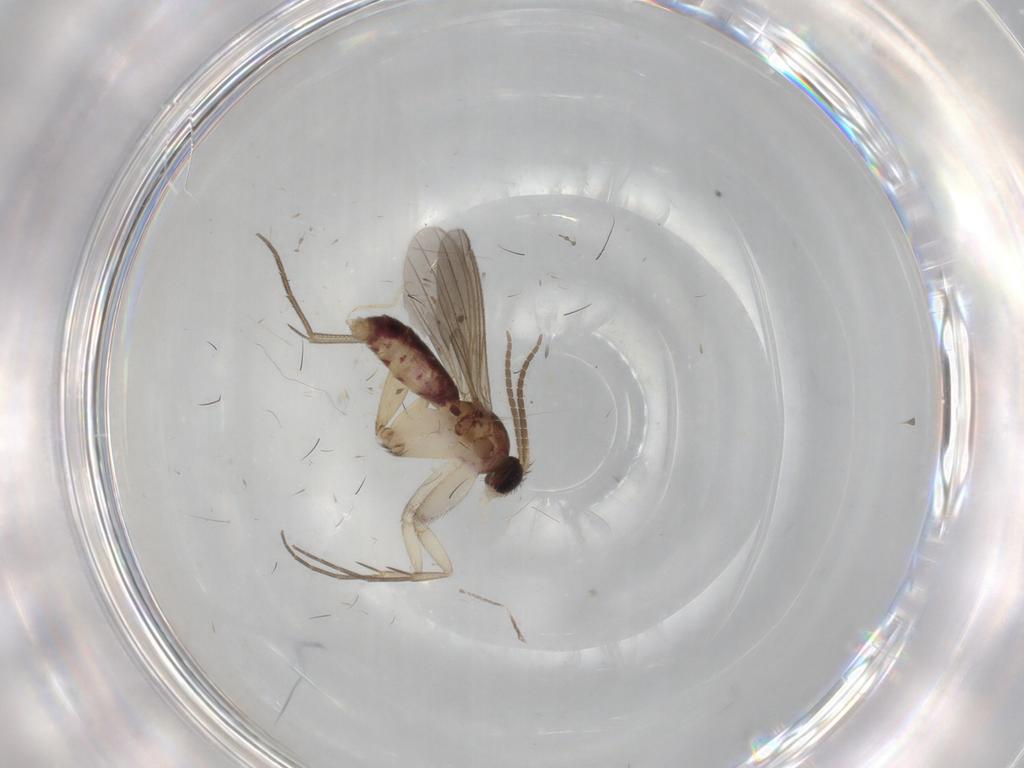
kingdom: Animalia
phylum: Arthropoda
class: Insecta
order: Diptera
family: Mycetophilidae
